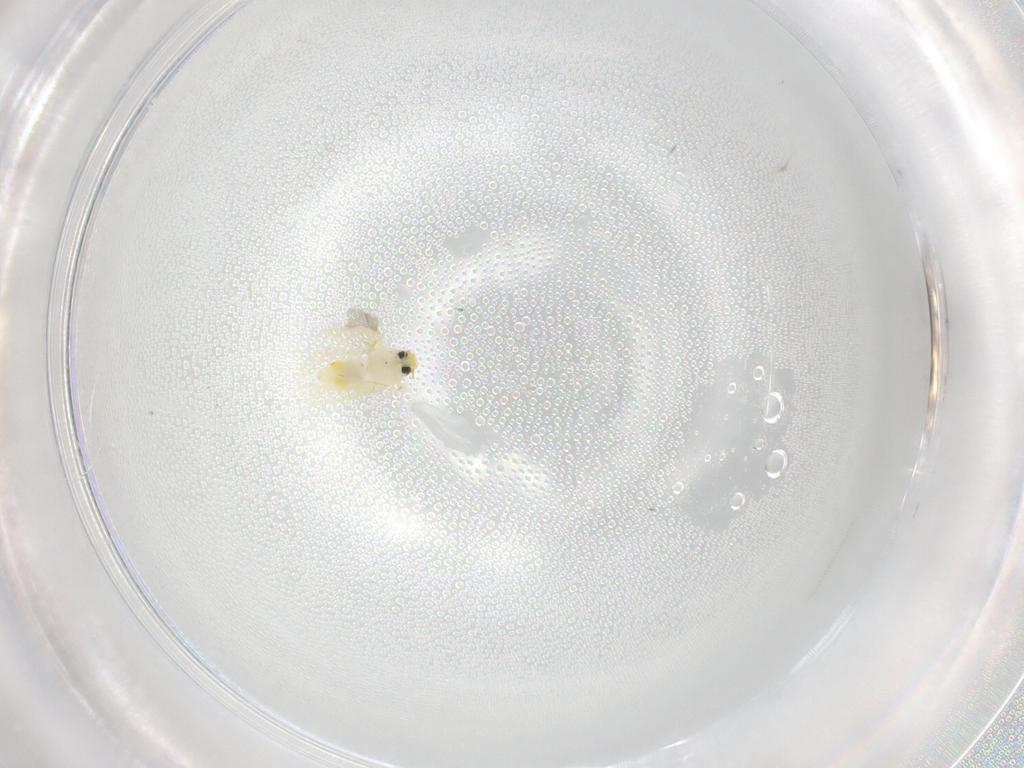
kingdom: Animalia
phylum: Arthropoda
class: Insecta
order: Hemiptera
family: Aleyrodidae
